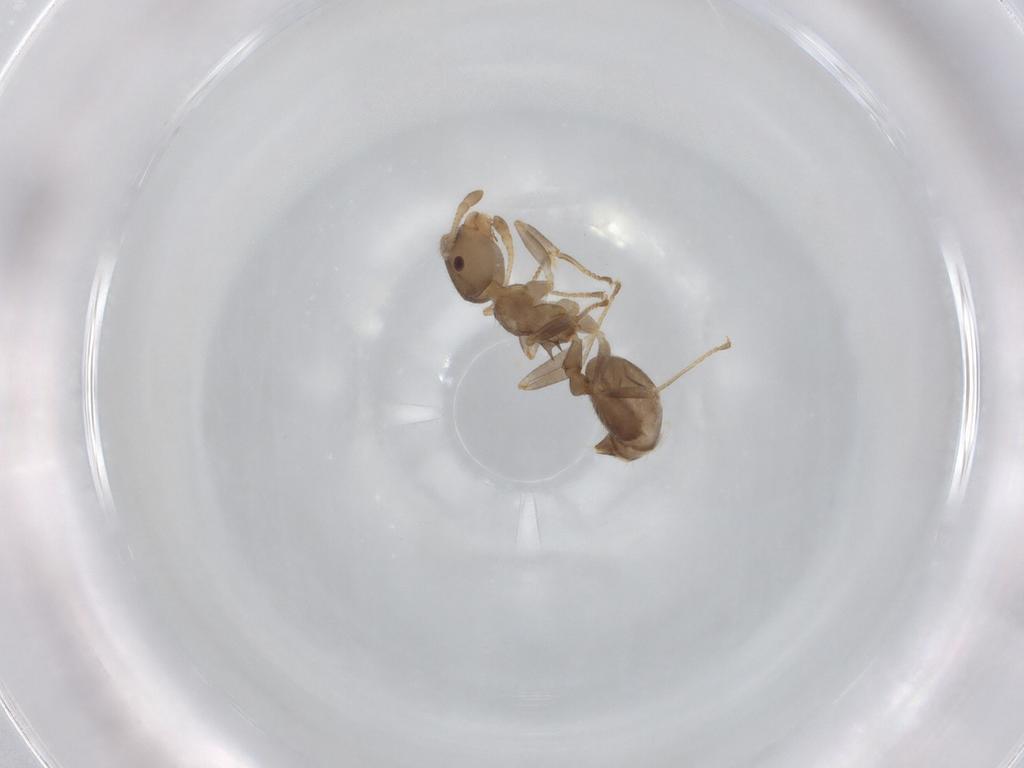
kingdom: Animalia
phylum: Arthropoda
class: Insecta
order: Hymenoptera
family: Formicidae
